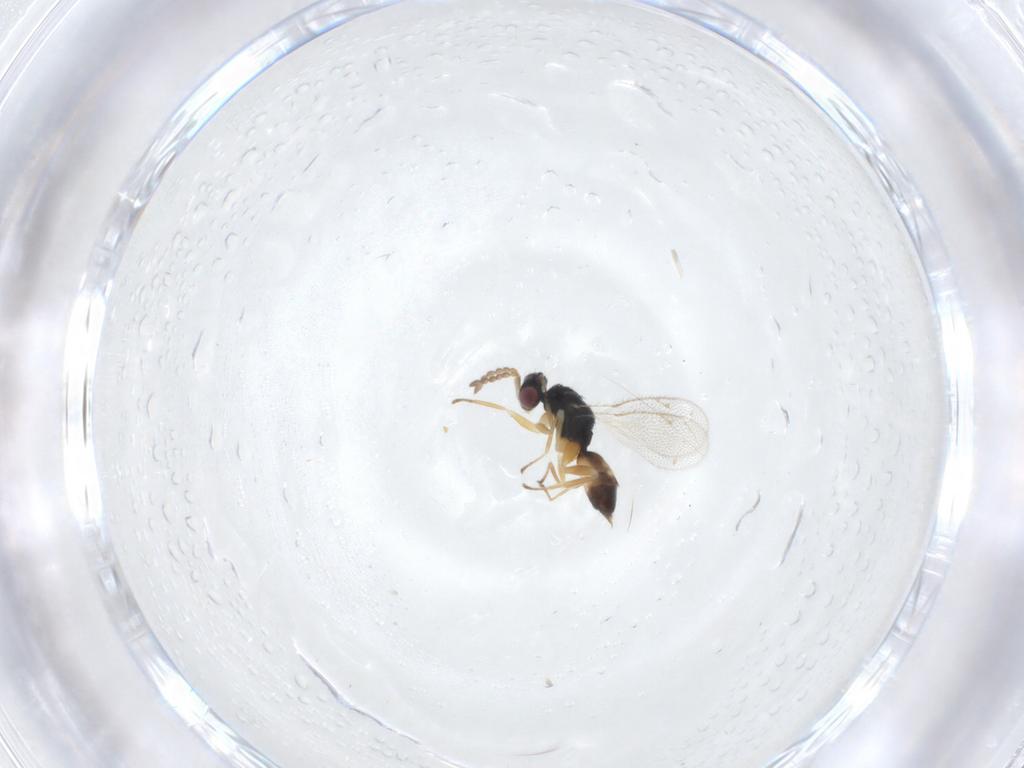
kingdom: Animalia
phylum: Arthropoda
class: Insecta
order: Hymenoptera
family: Eulophidae
